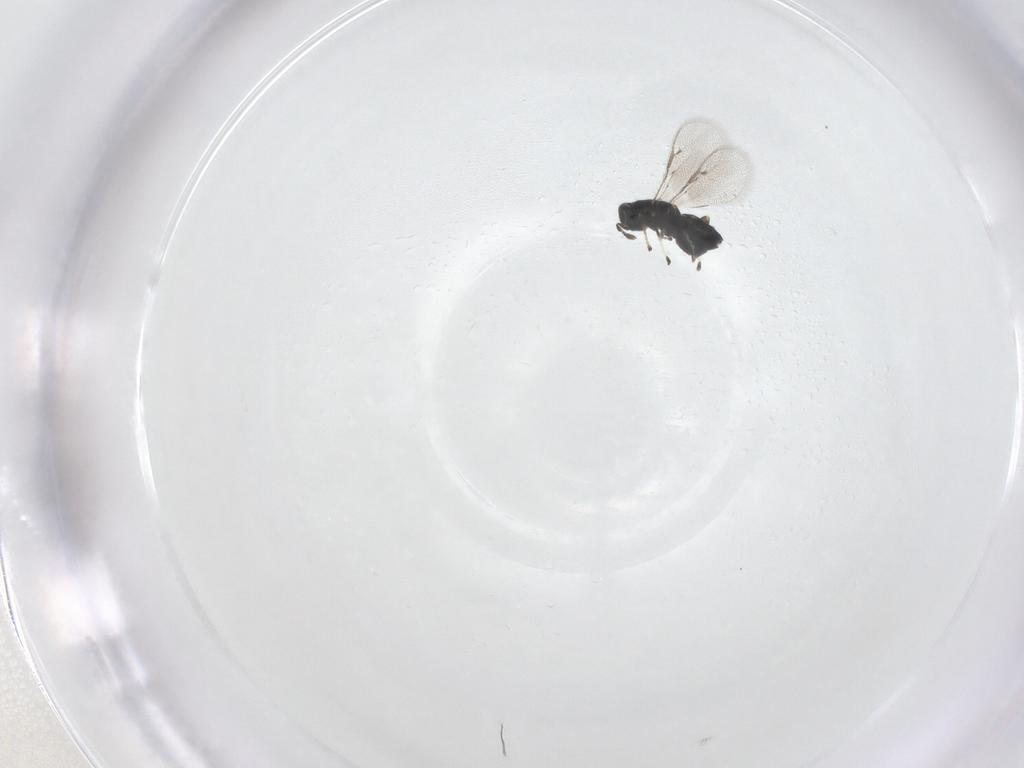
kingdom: Animalia
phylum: Arthropoda
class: Insecta
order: Hymenoptera
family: Eulophidae
